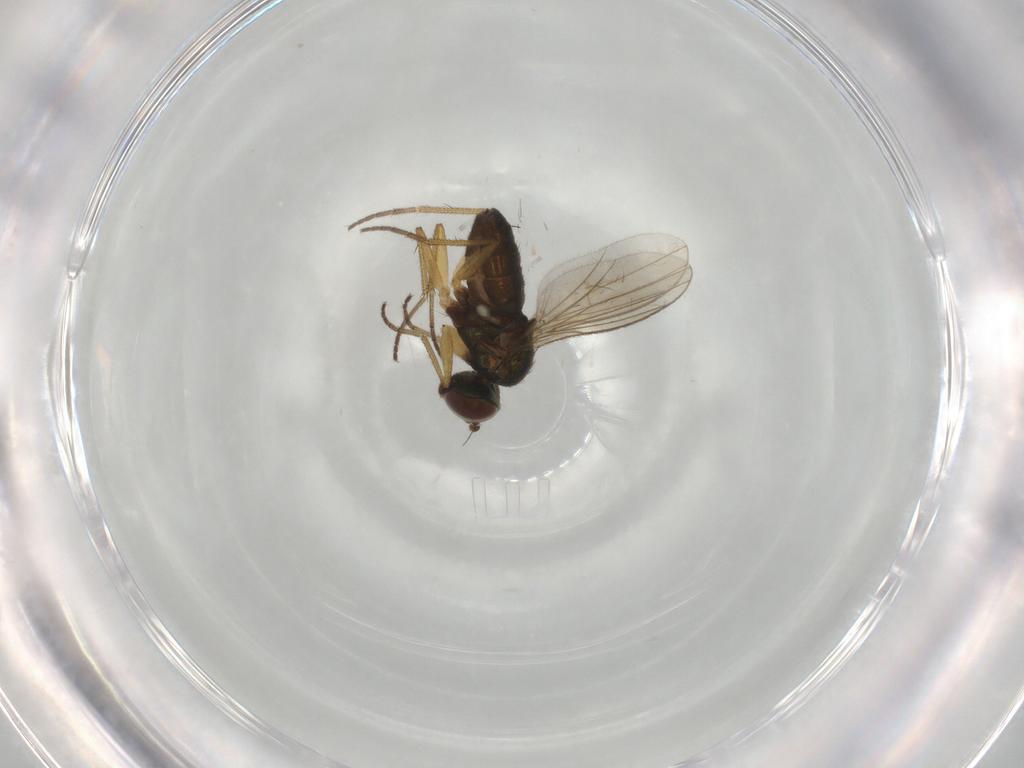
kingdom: Animalia
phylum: Arthropoda
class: Insecta
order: Diptera
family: Dolichopodidae
